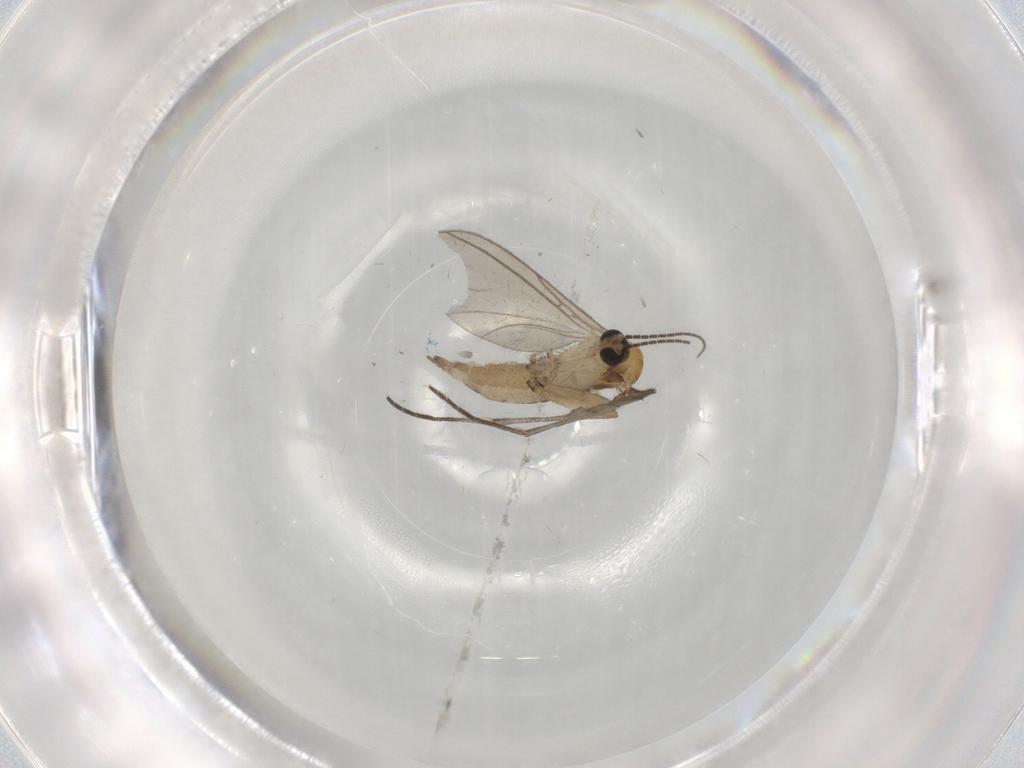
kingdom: Animalia
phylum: Arthropoda
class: Insecta
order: Diptera
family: Sciaridae
